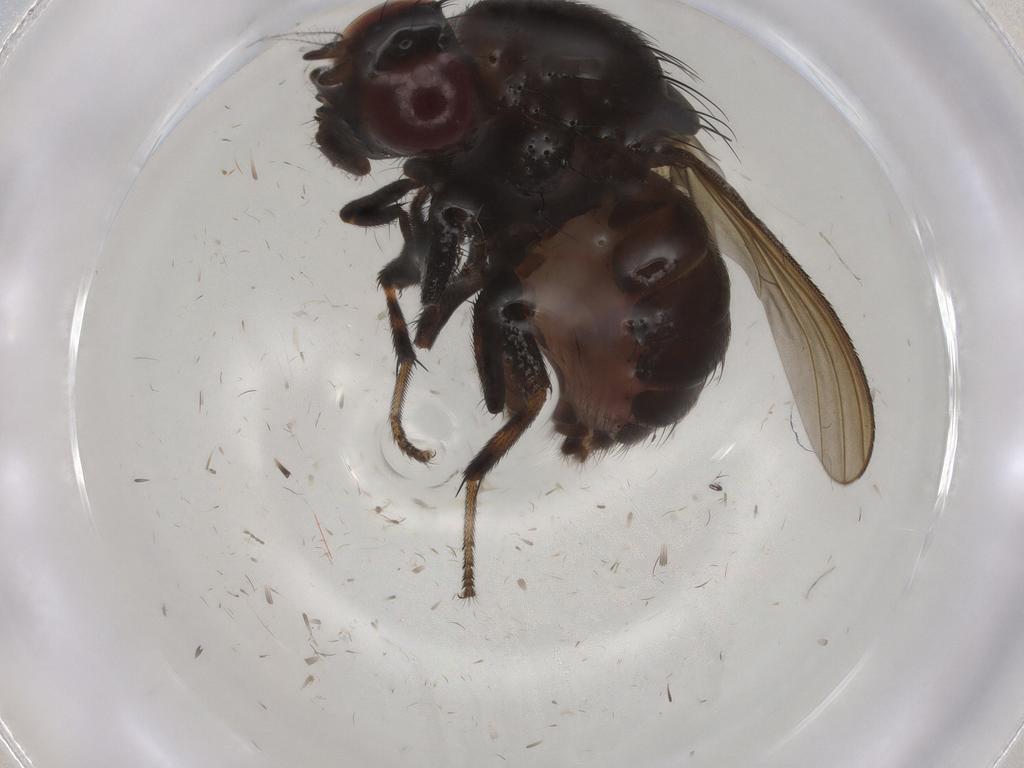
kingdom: Animalia
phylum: Arthropoda
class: Insecta
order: Diptera
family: Lauxaniidae
